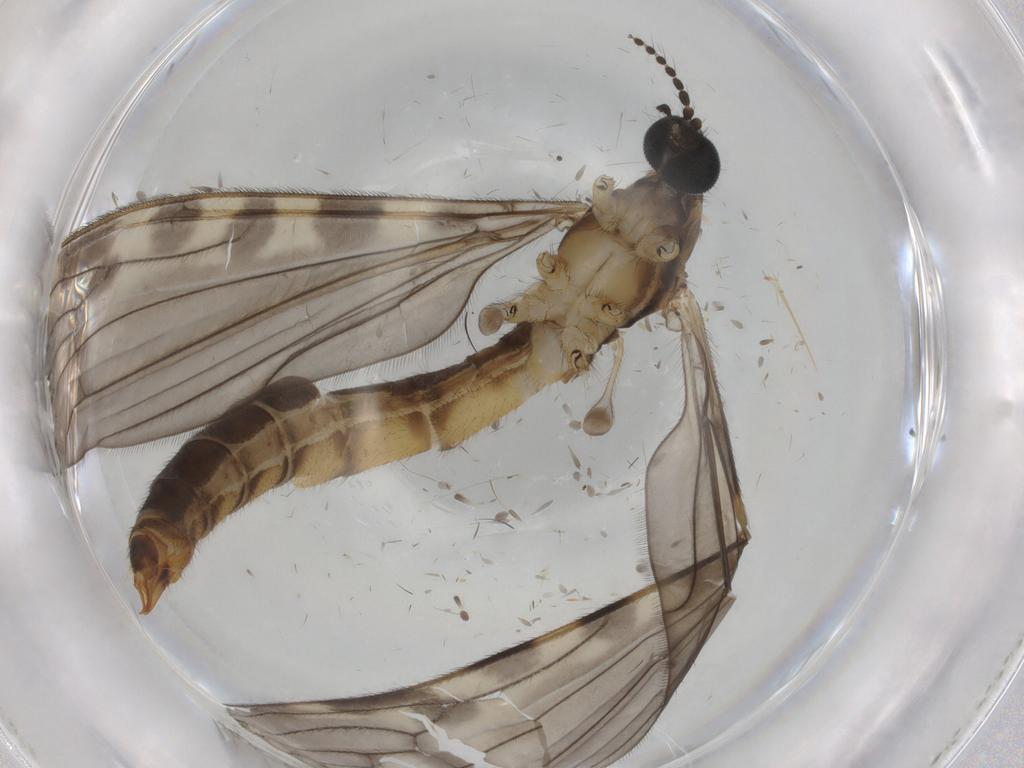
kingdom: Animalia
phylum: Arthropoda
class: Insecta
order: Diptera
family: Limoniidae
